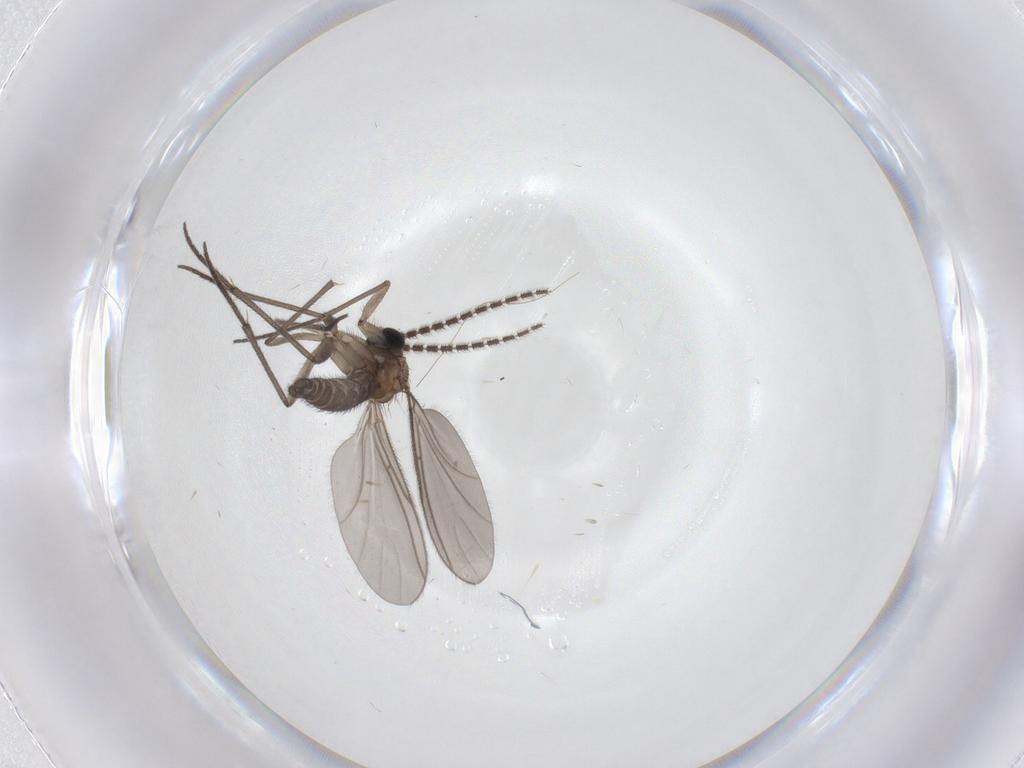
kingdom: Animalia
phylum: Arthropoda
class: Insecta
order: Diptera
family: Sciaridae
